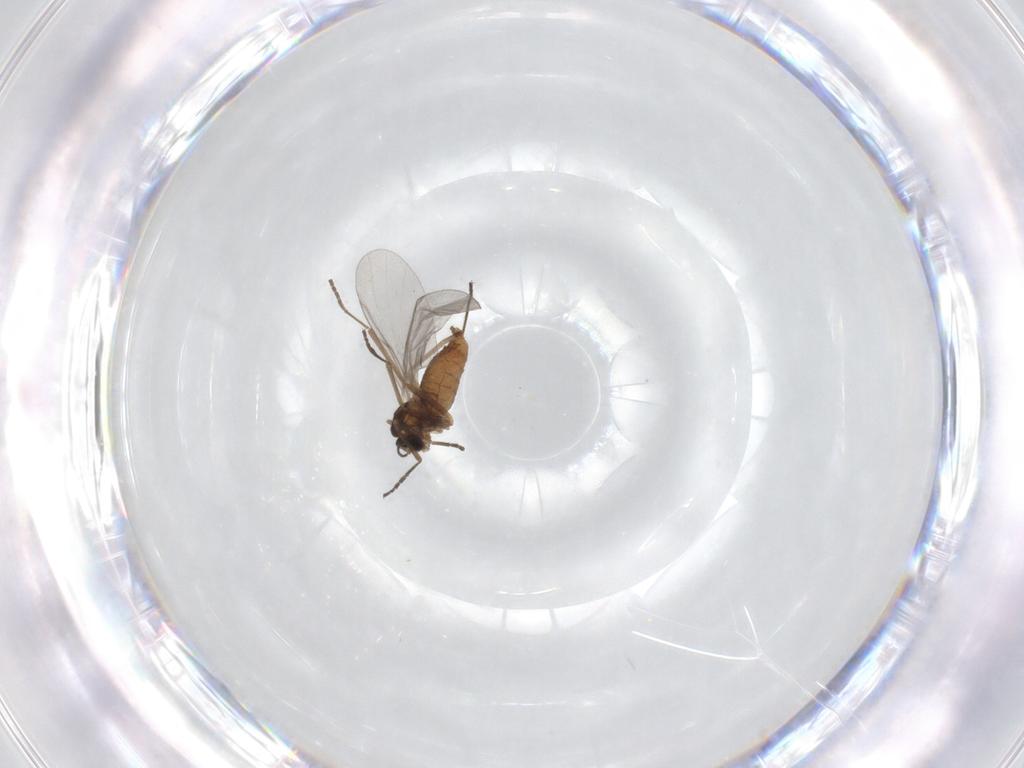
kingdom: Animalia
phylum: Arthropoda
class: Insecta
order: Diptera
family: Cecidomyiidae
